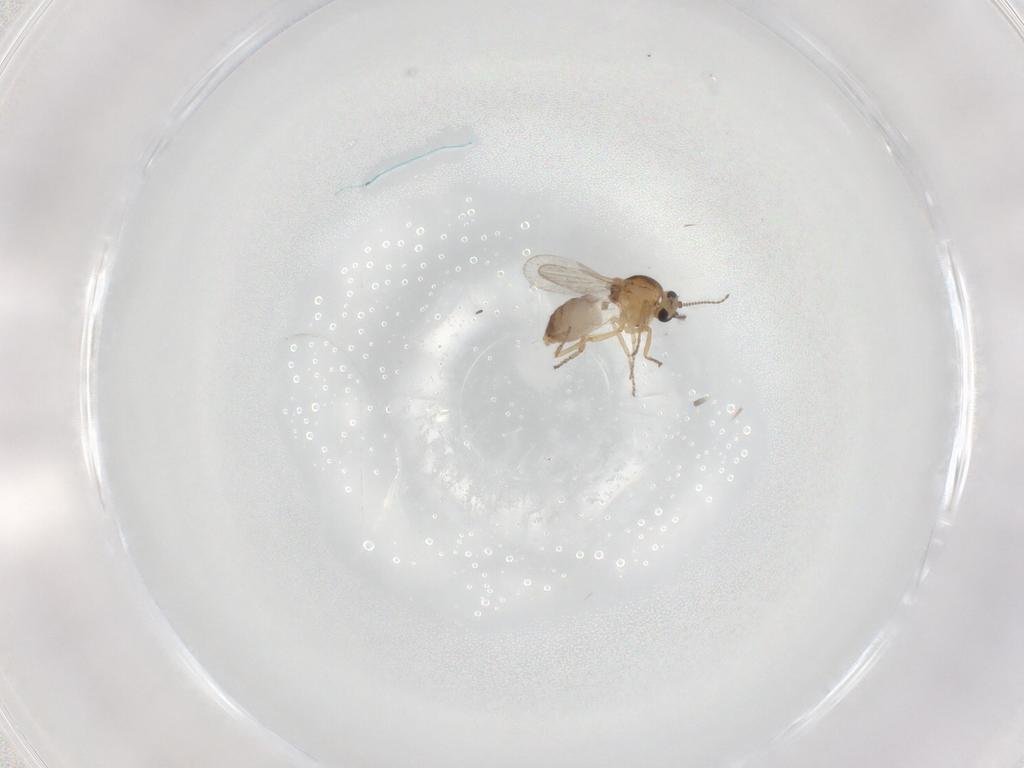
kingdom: Animalia
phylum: Arthropoda
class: Insecta
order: Diptera
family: Ceratopogonidae
